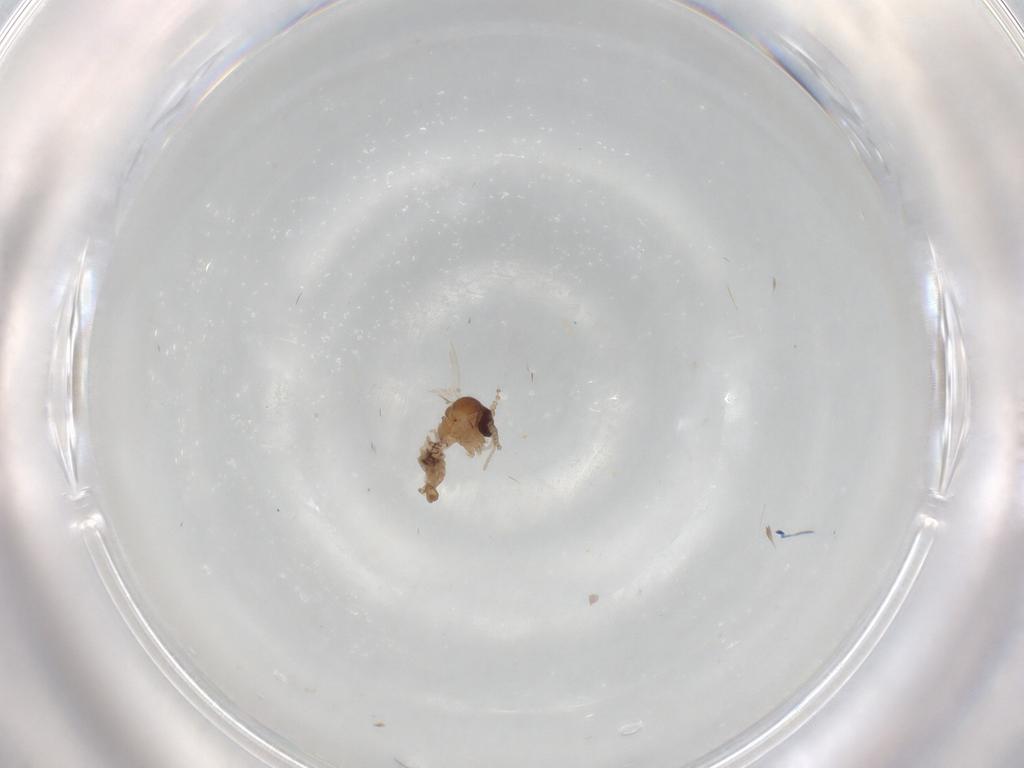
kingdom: Animalia
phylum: Arthropoda
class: Insecta
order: Diptera
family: Psychodidae
